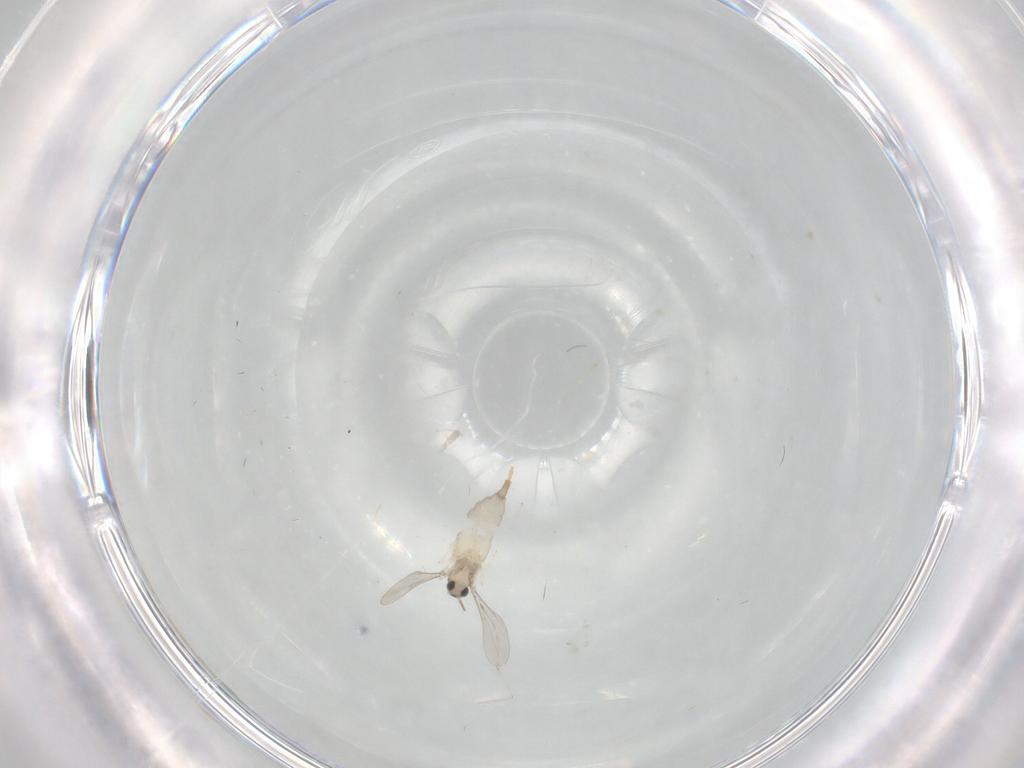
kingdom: Animalia
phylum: Arthropoda
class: Insecta
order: Diptera
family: Cecidomyiidae
